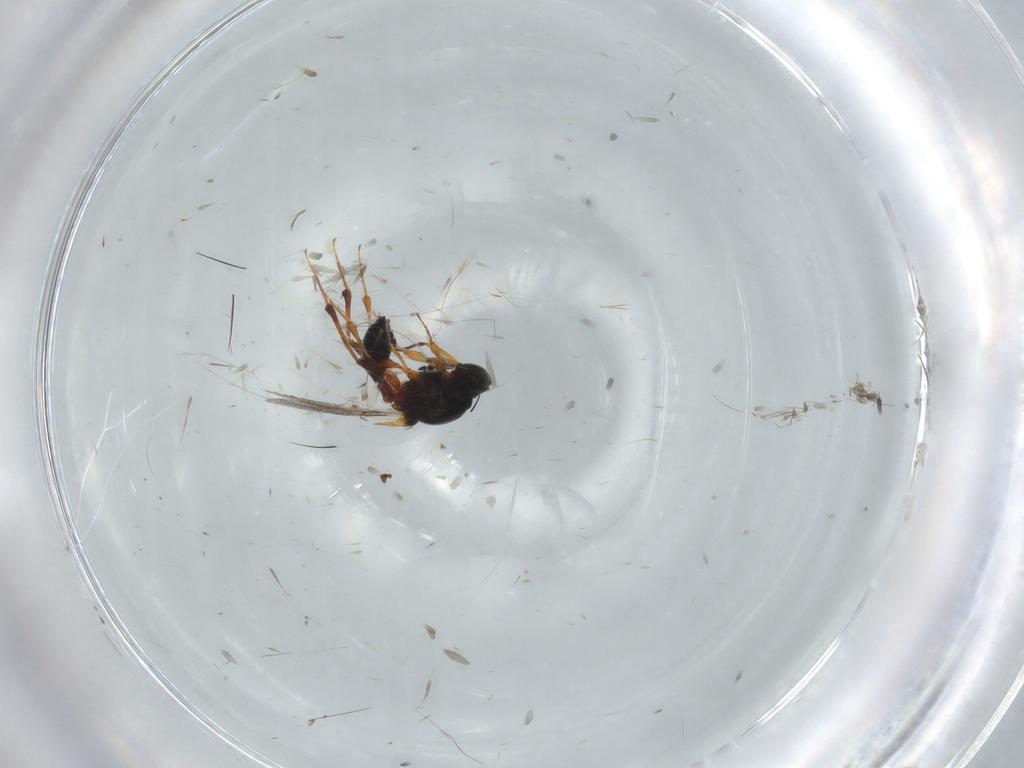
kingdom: Animalia
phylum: Arthropoda
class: Insecta
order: Hymenoptera
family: Platygastridae
